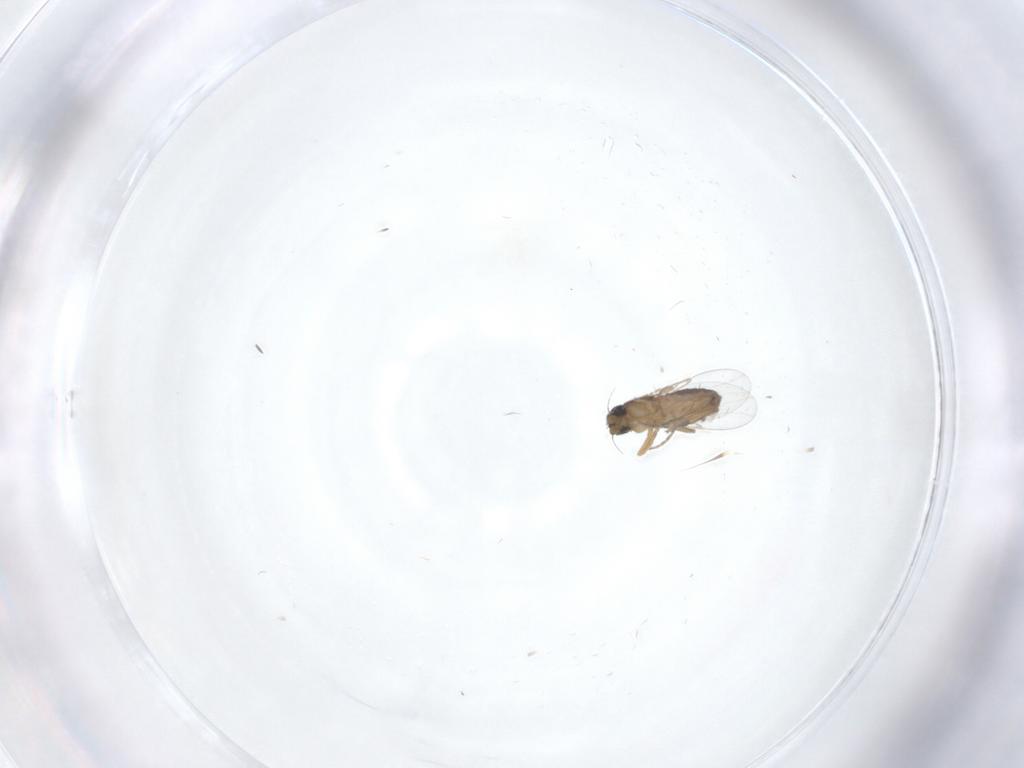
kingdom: Animalia
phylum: Arthropoda
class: Insecta
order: Diptera
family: Phoridae
